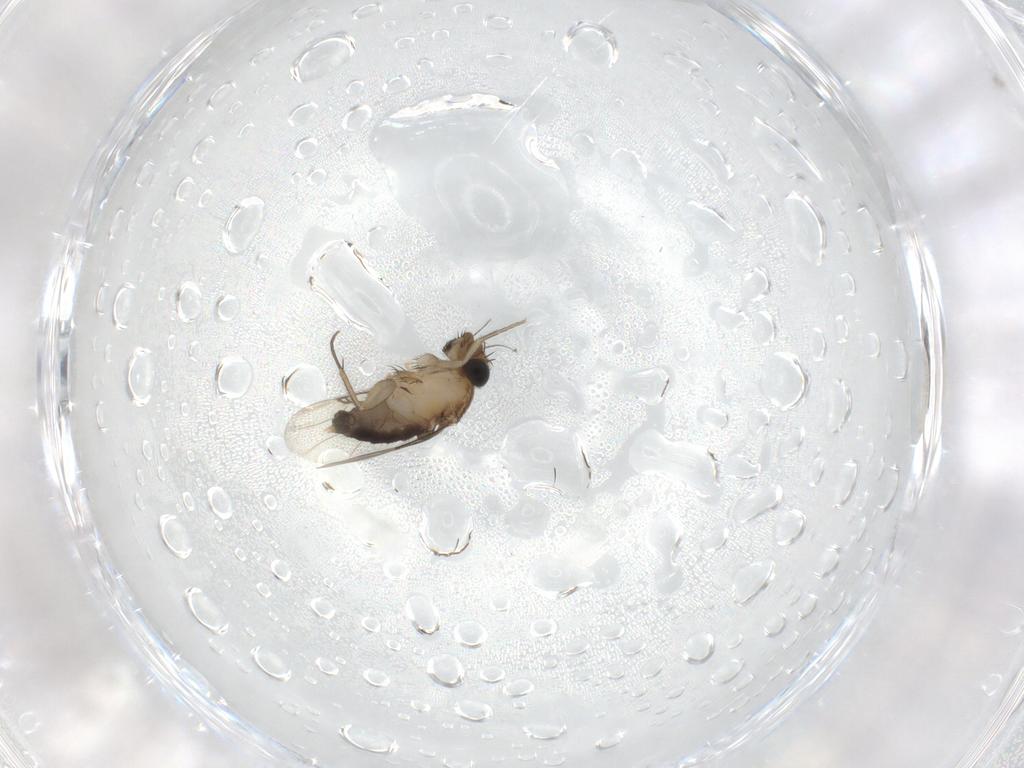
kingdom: Animalia
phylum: Arthropoda
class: Insecta
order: Diptera
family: Phoridae
